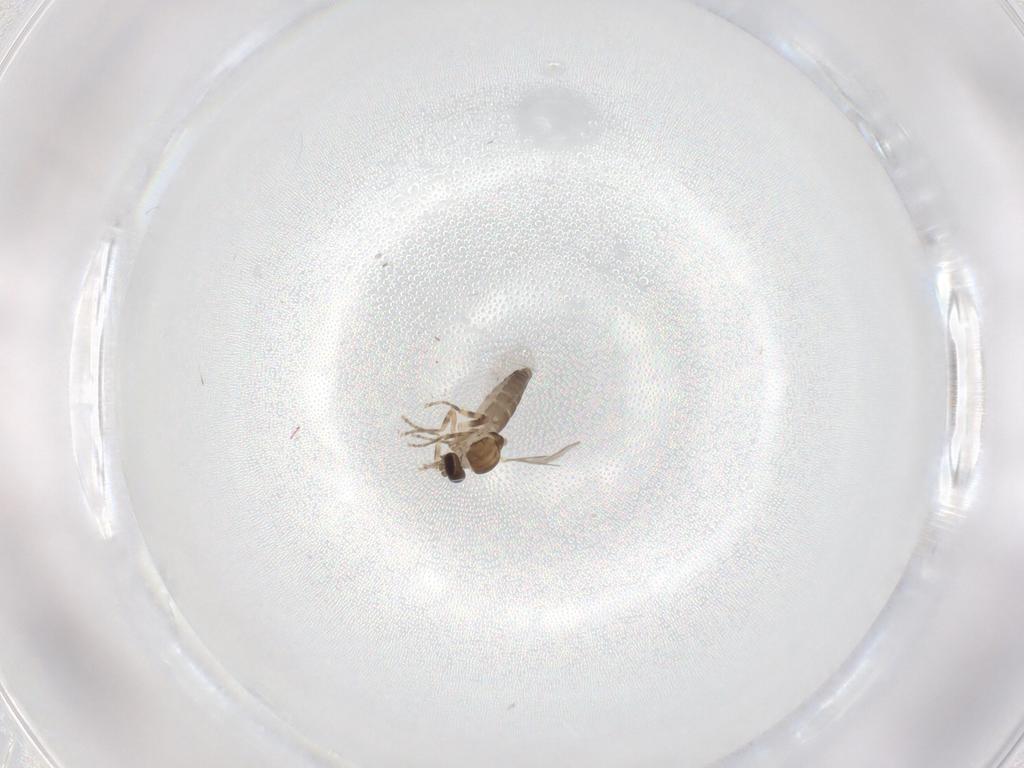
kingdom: Animalia
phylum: Arthropoda
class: Insecta
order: Diptera
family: Ceratopogonidae
